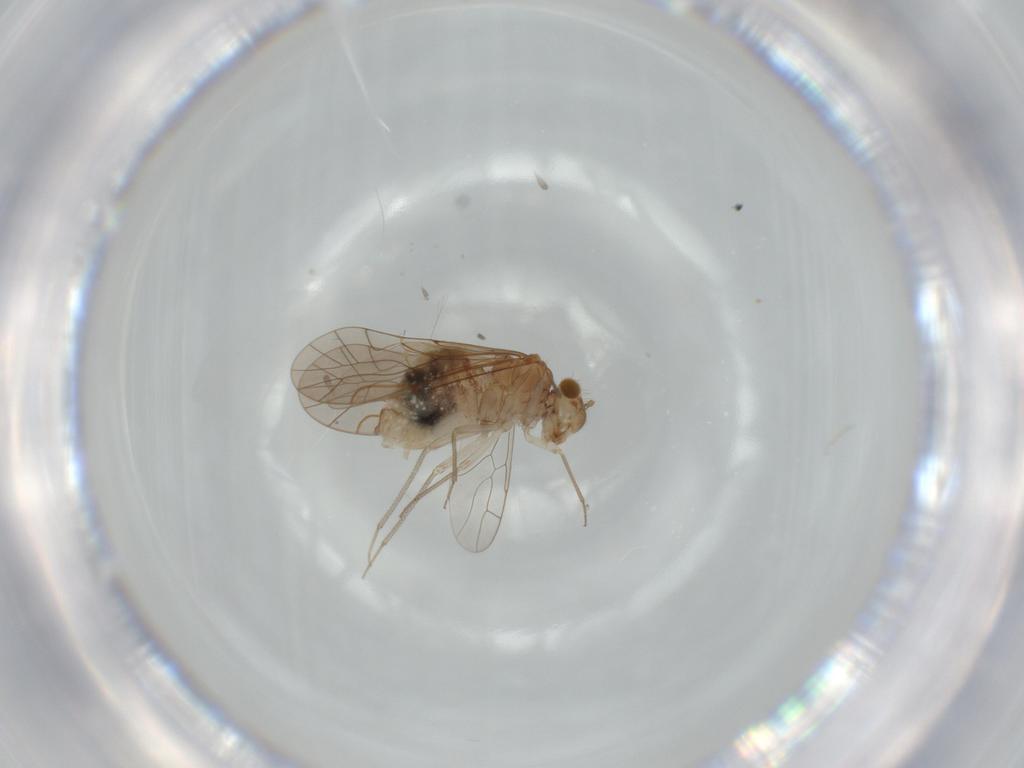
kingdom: Animalia
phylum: Arthropoda
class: Insecta
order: Psocodea
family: Lachesillidae
